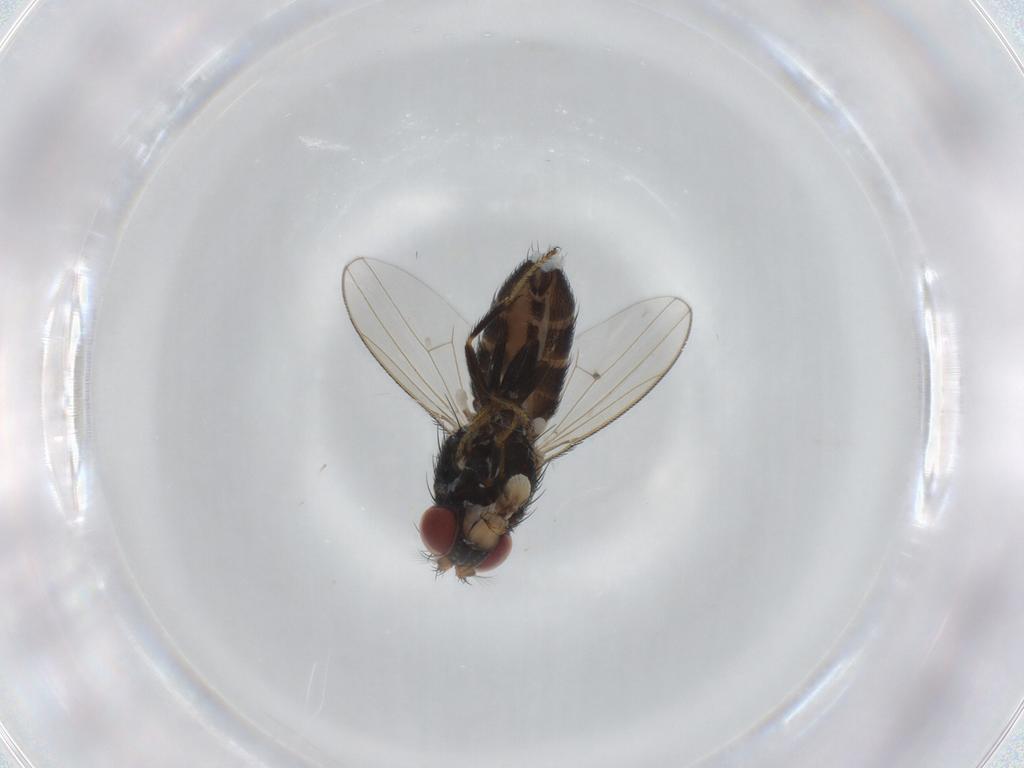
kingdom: Animalia
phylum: Arthropoda
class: Insecta
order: Diptera
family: Ephydridae
